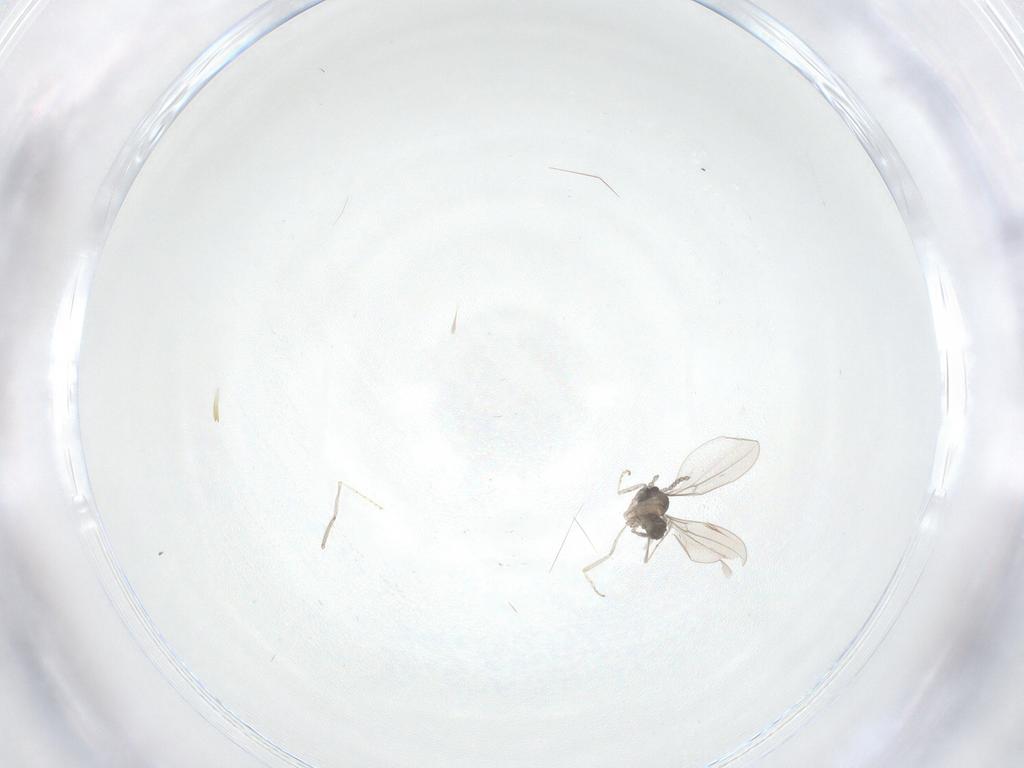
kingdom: Animalia
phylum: Arthropoda
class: Insecta
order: Diptera
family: Cecidomyiidae
